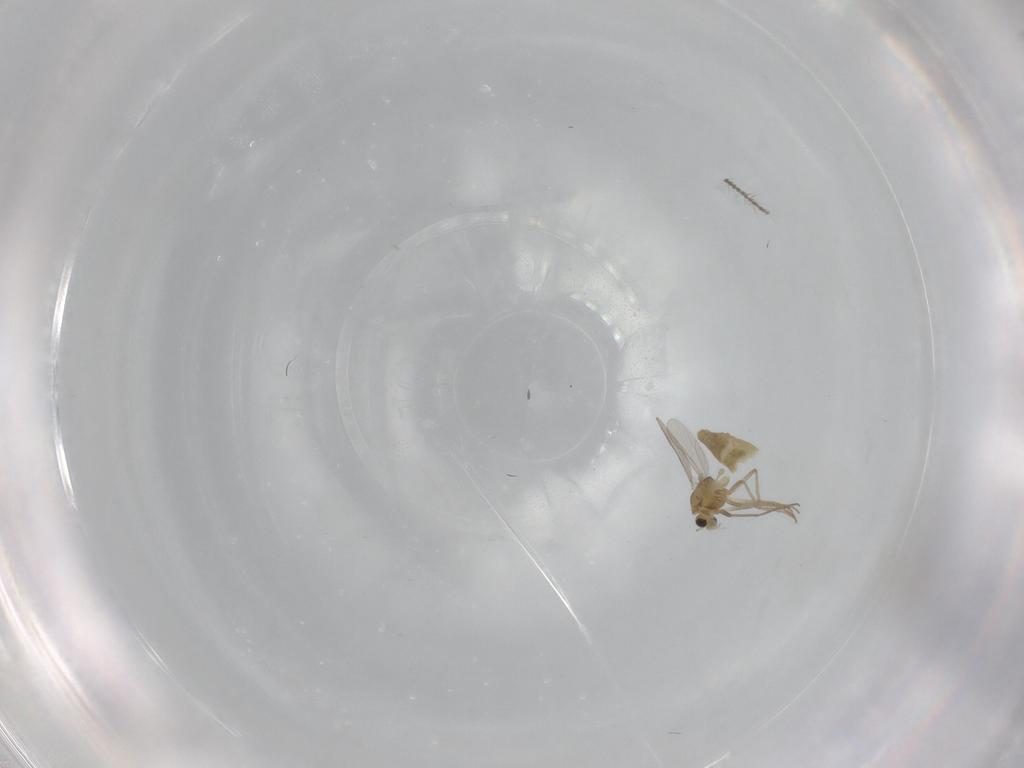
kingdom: Animalia
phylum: Arthropoda
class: Insecta
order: Diptera
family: Chironomidae
